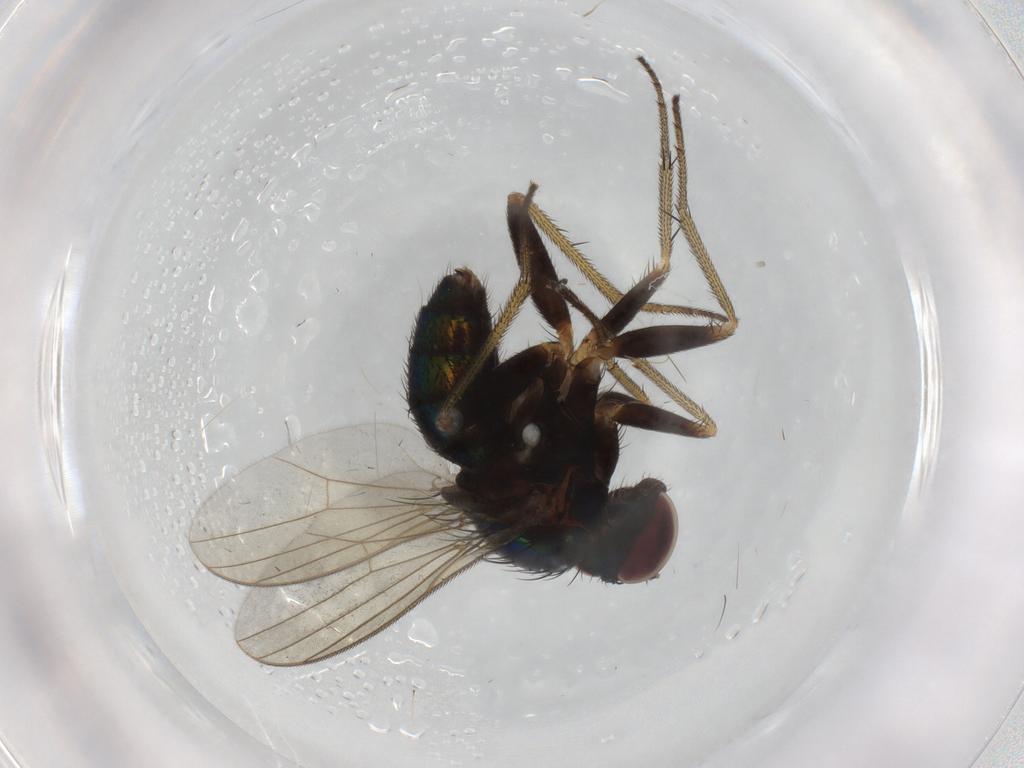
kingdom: Animalia
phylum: Arthropoda
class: Insecta
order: Diptera
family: Dolichopodidae
